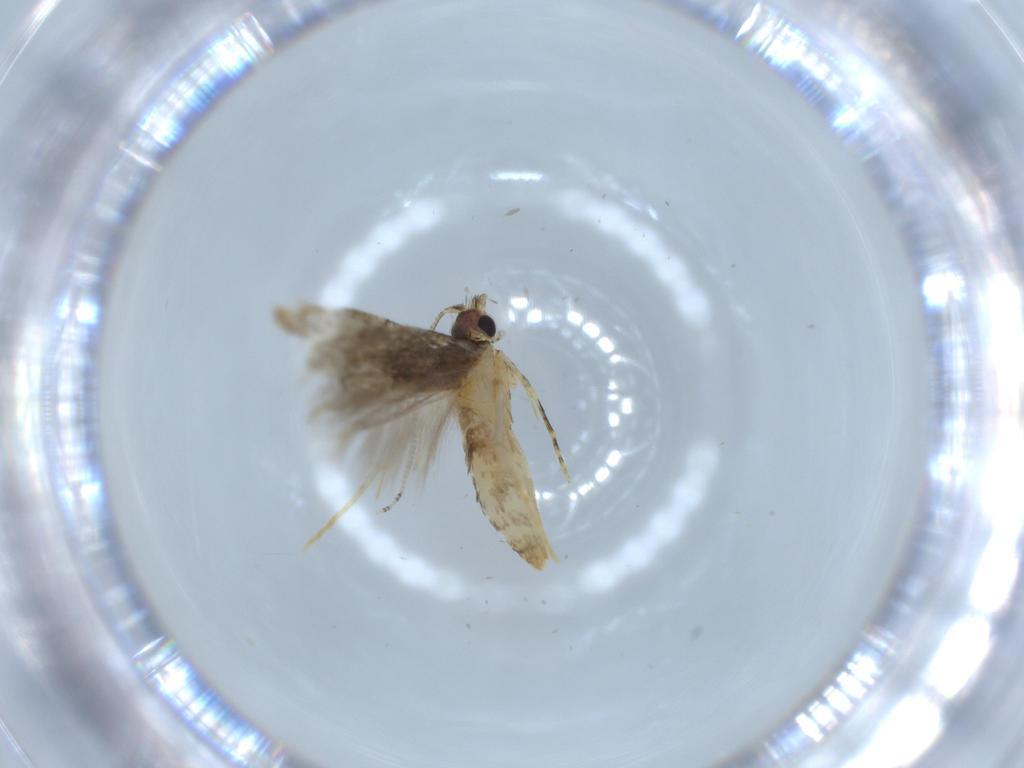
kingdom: Animalia
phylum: Arthropoda
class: Insecta
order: Lepidoptera
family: Tineidae
